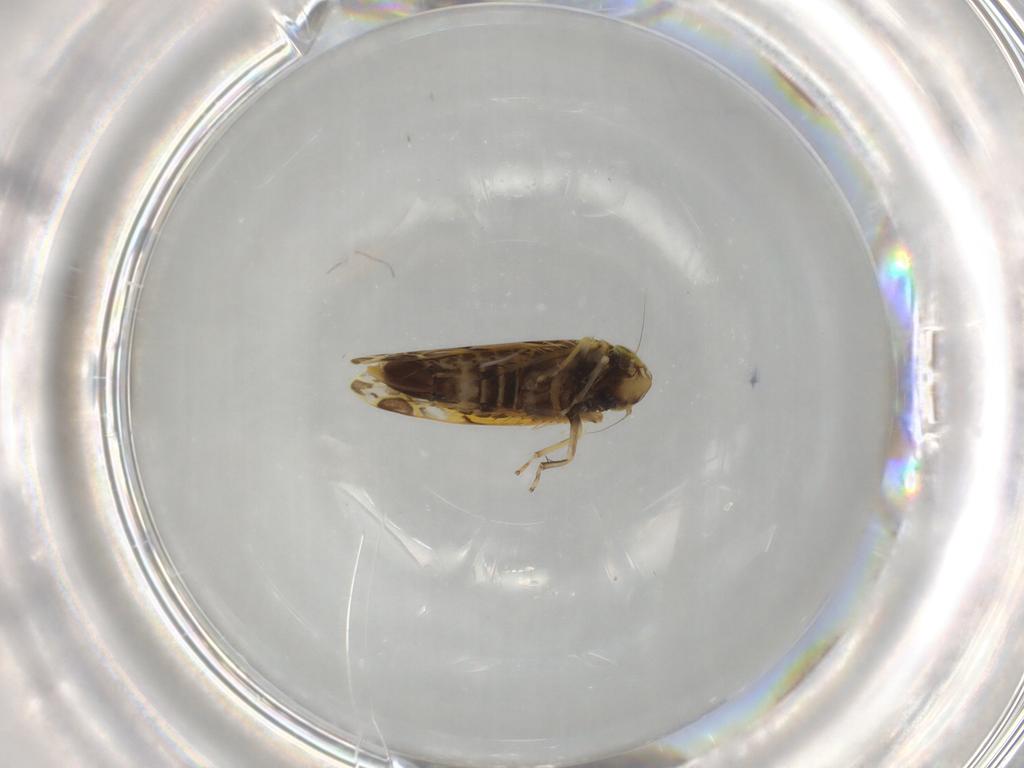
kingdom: Animalia
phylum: Arthropoda
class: Insecta
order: Hemiptera
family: Cicadellidae
